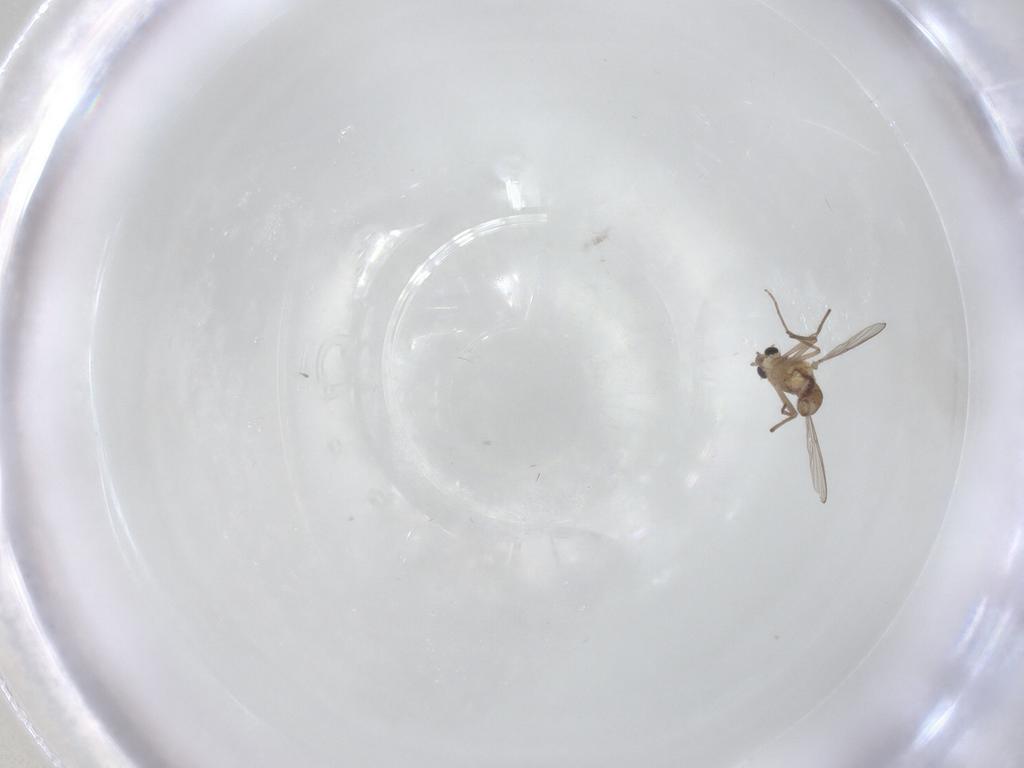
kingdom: Animalia
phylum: Arthropoda
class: Insecta
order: Diptera
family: Chironomidae
